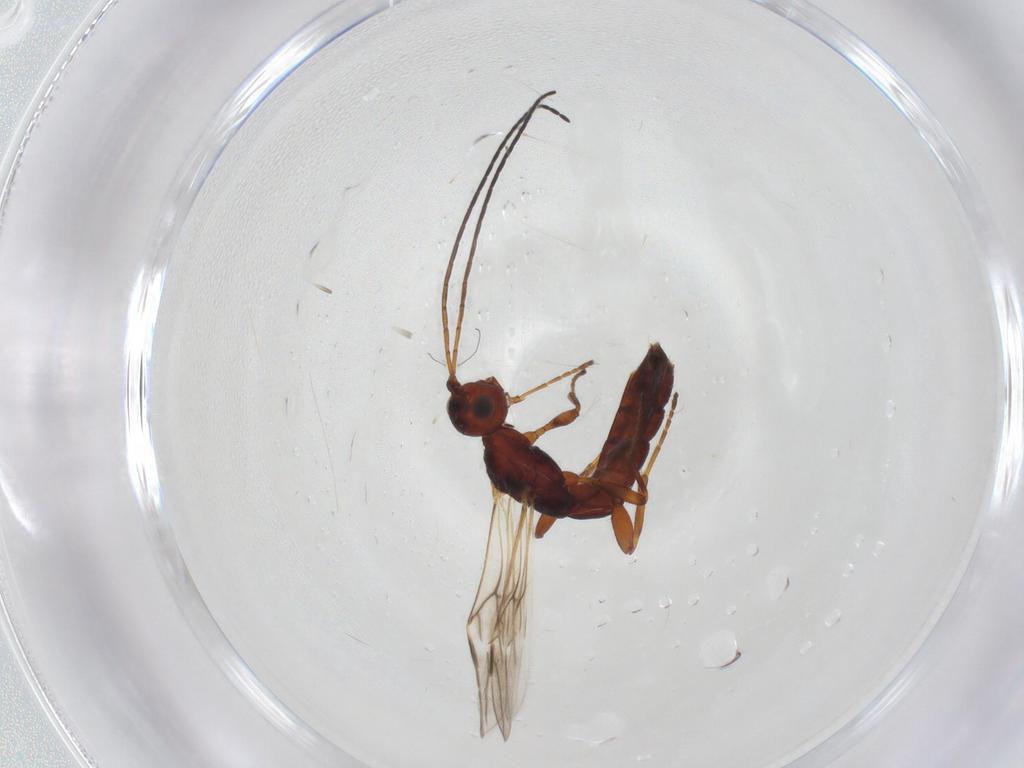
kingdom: Animalia
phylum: Arthropoda
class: Insecta
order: Hymenoptera
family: Braconidae
